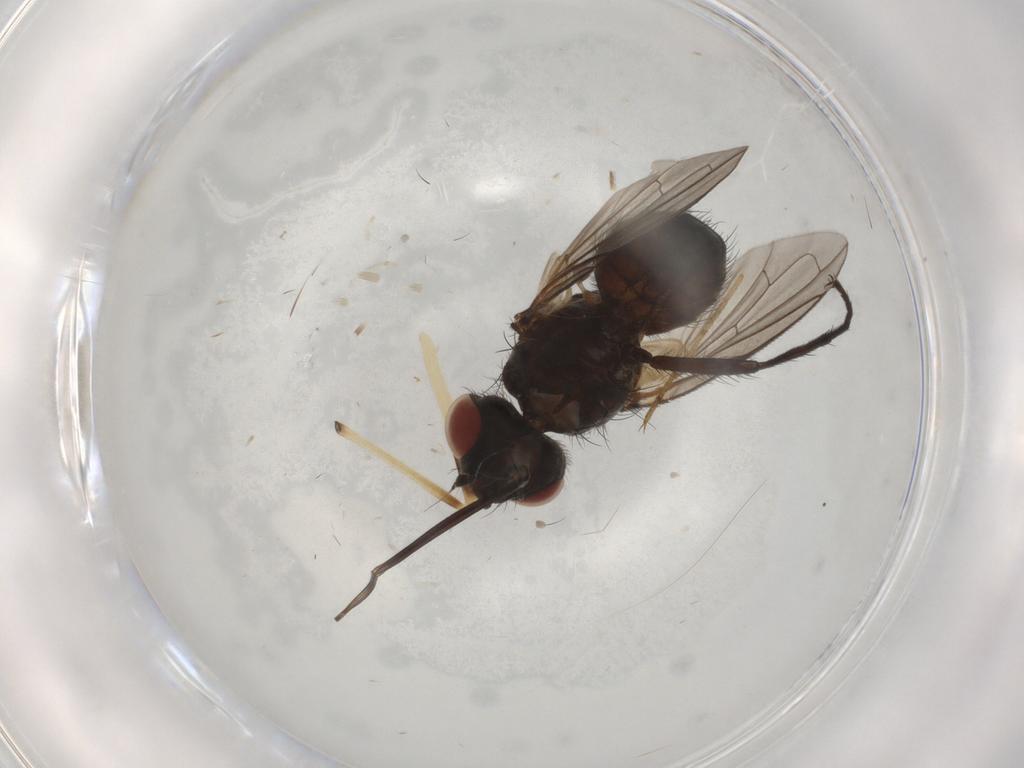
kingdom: Animalia
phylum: Arthropoda
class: Insecta
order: Diptera
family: Tachinidae
